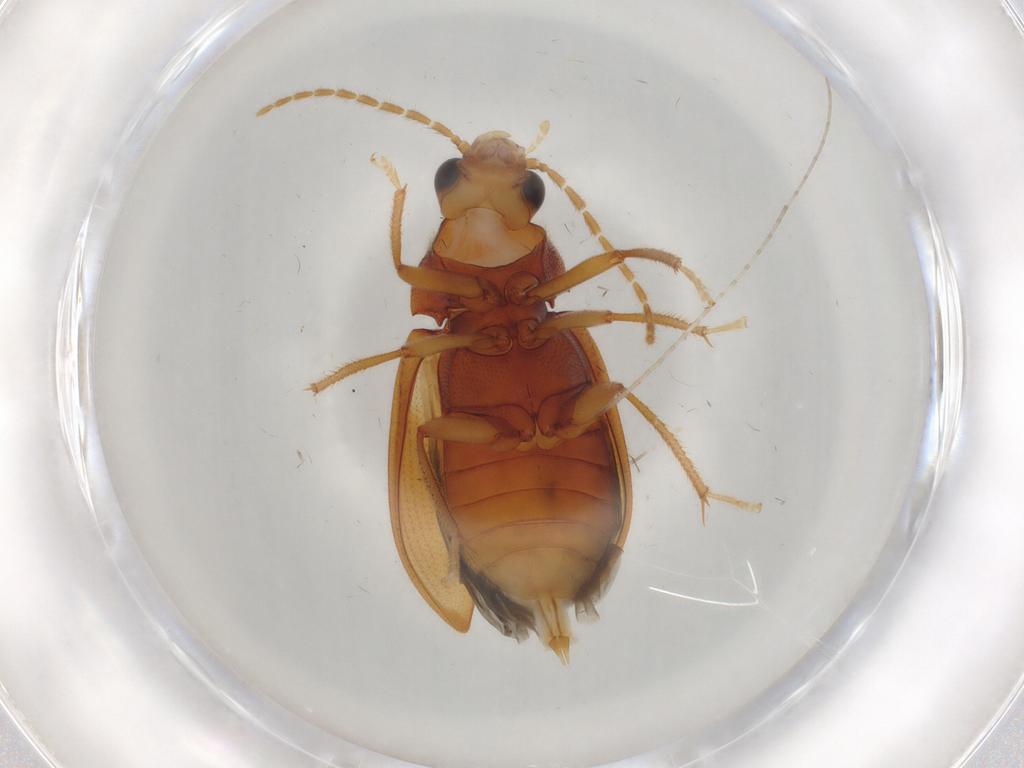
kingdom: Animalia
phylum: Arthropoda
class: Insecta
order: Coleoptera
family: Ptilodactylidae
